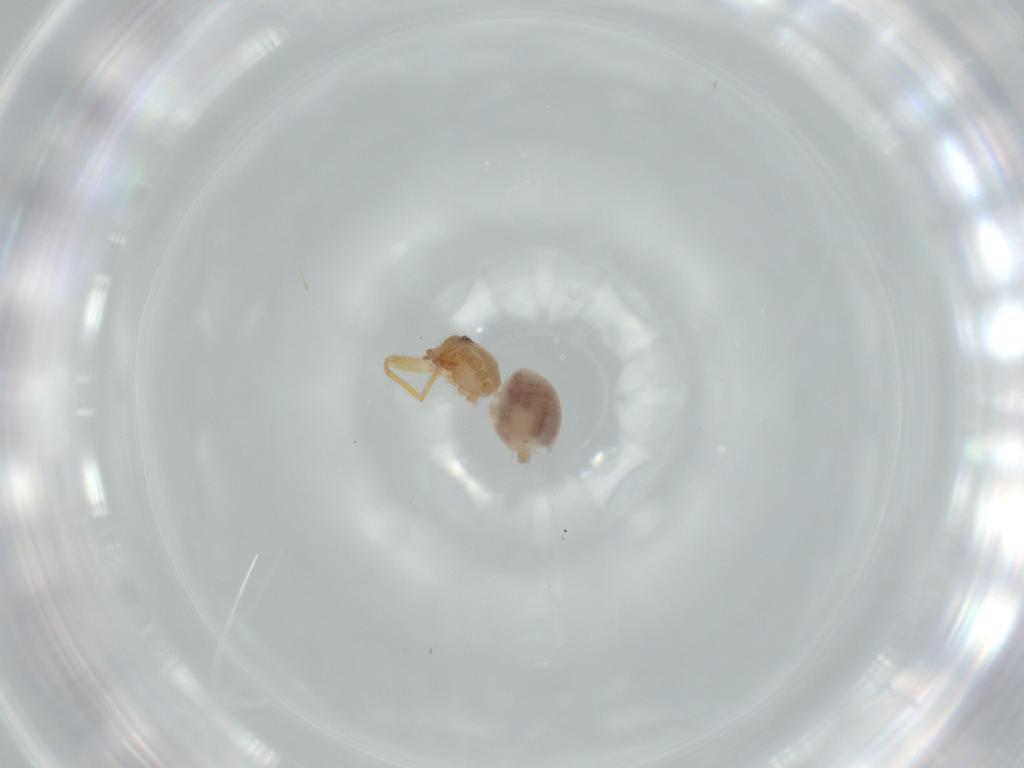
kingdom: Animalia
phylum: Arthropoda
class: Arachnida
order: Araneae
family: Oonopidae
